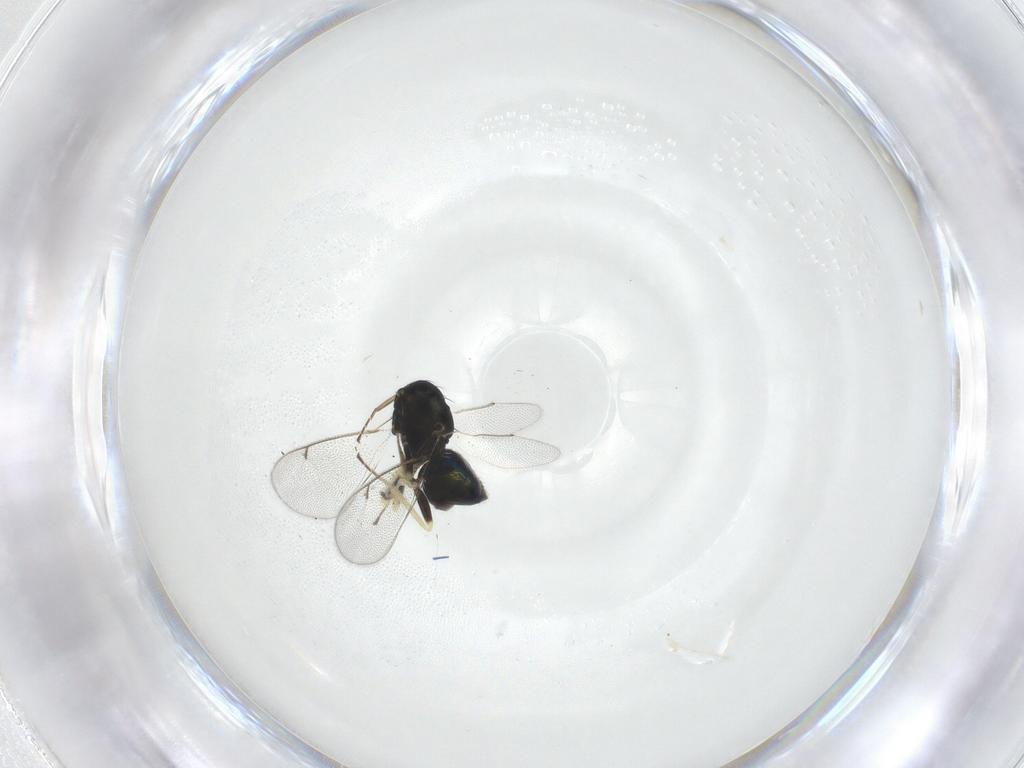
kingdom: Animalia
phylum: Arthropoda
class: Insecta
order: Hymenoptera
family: Eulophidae
